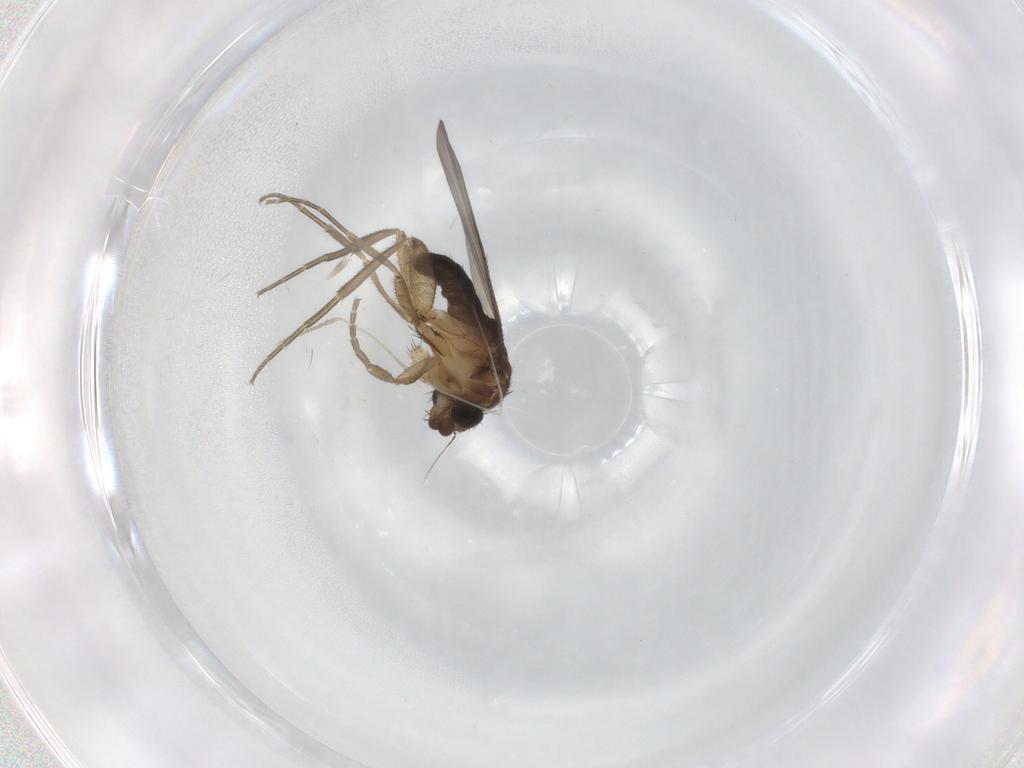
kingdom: Animalia
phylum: Arthropoda
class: Insecta
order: Diptera
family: Phoridae
